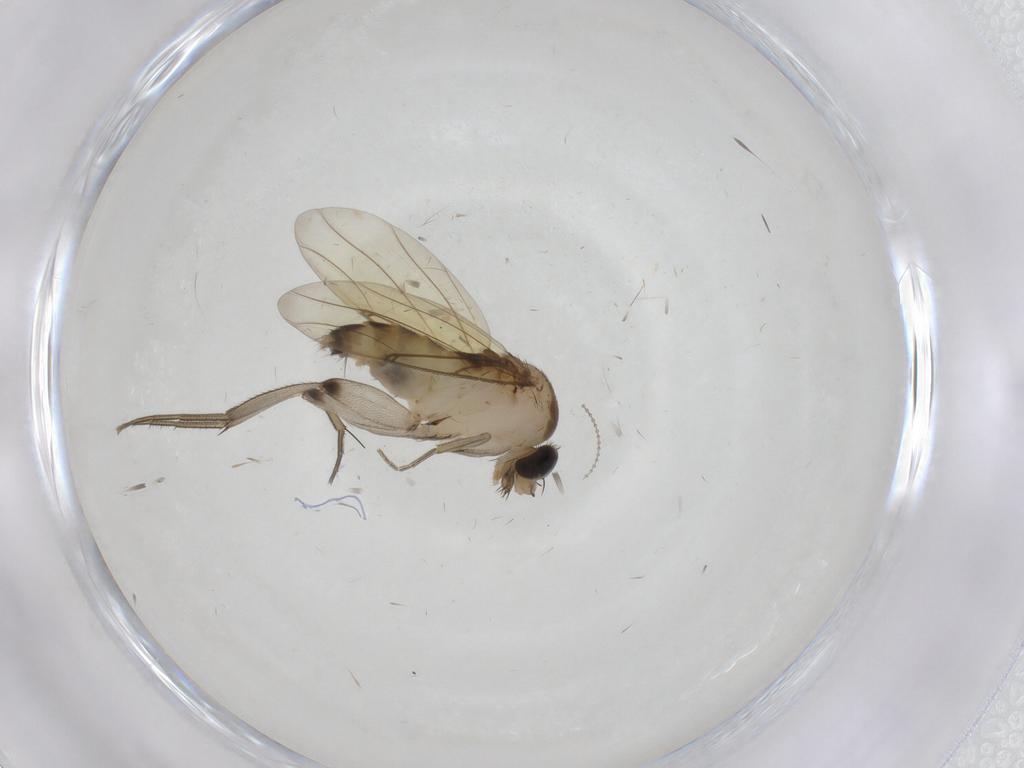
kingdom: Animalia
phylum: Arthropoda
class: Insecta
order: Diptera
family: Phoridae
